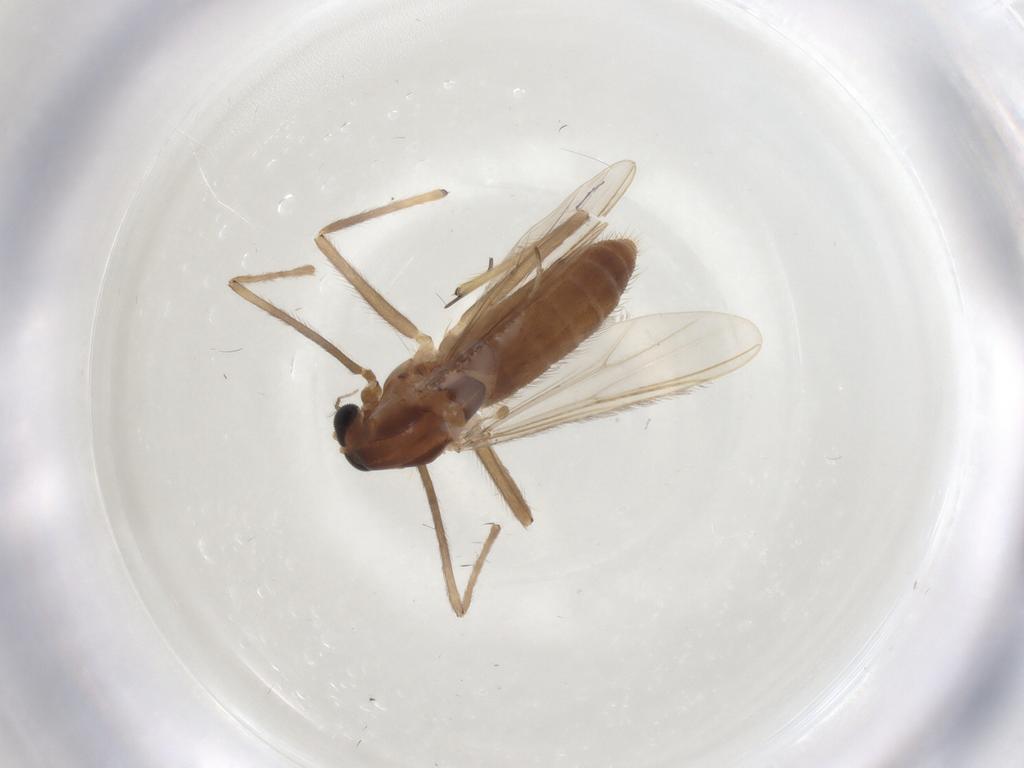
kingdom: Animalia
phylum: Arthropoda
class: Insecta
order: Diptera
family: Chironomidae
